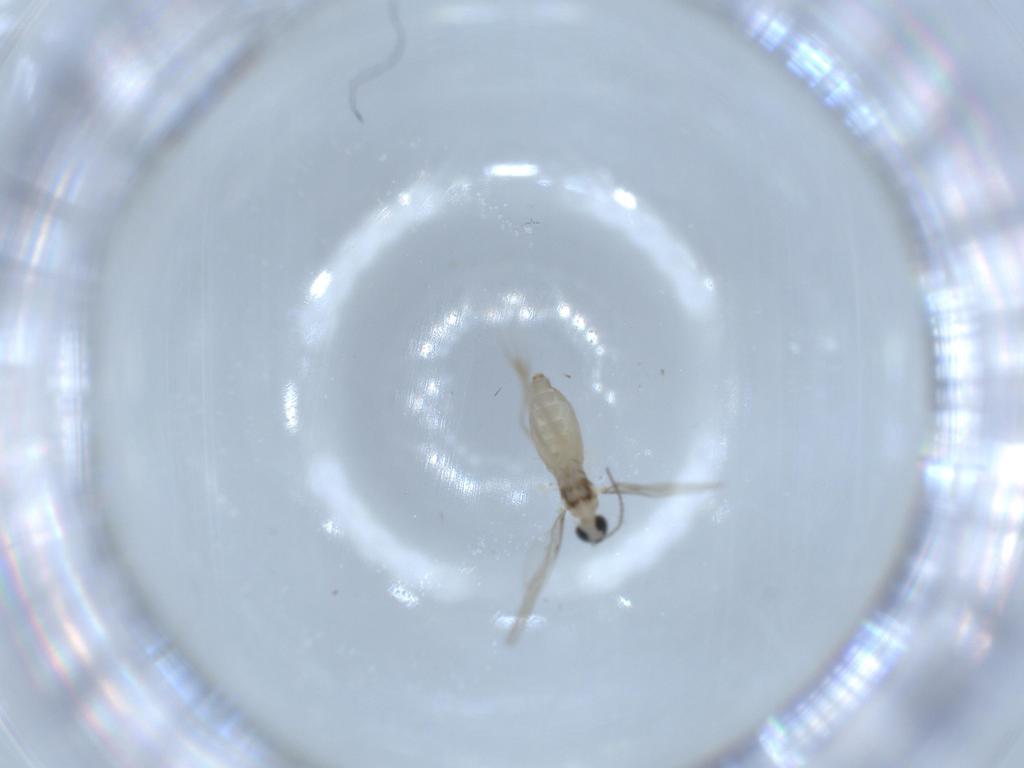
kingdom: Animalia
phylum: Arthropoda
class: Insecta
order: Diptera
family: Cecidomyiidae
